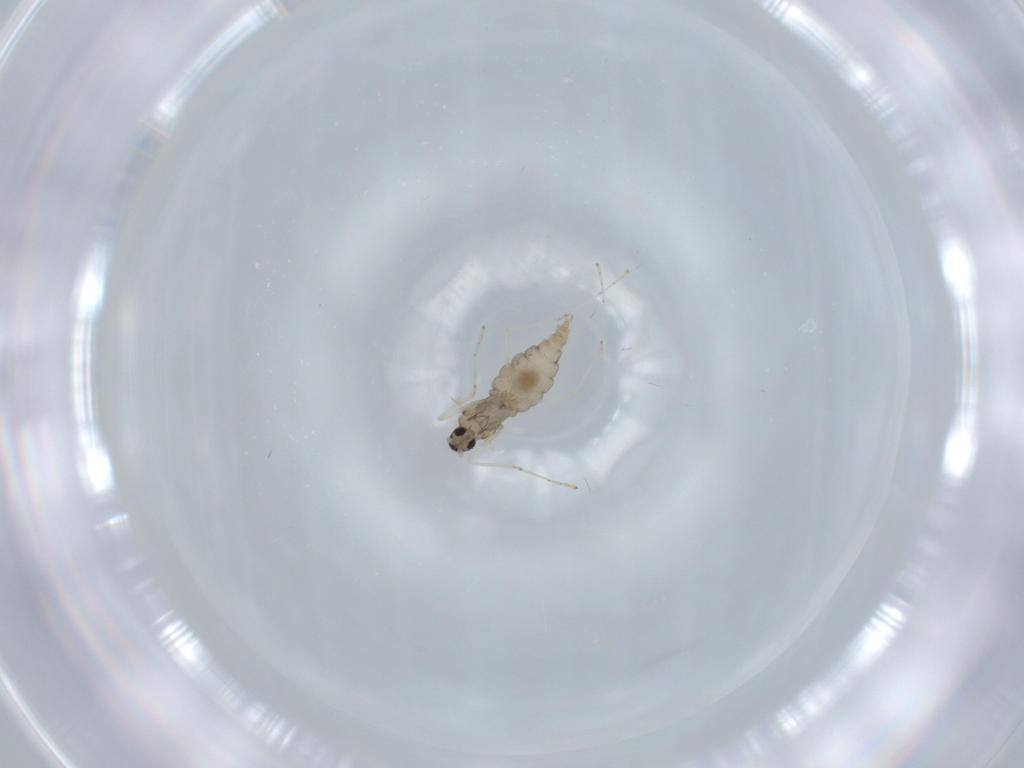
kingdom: Animalia
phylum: Arthropoda
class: Insecta
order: Diptera
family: Cecidomyiidae
